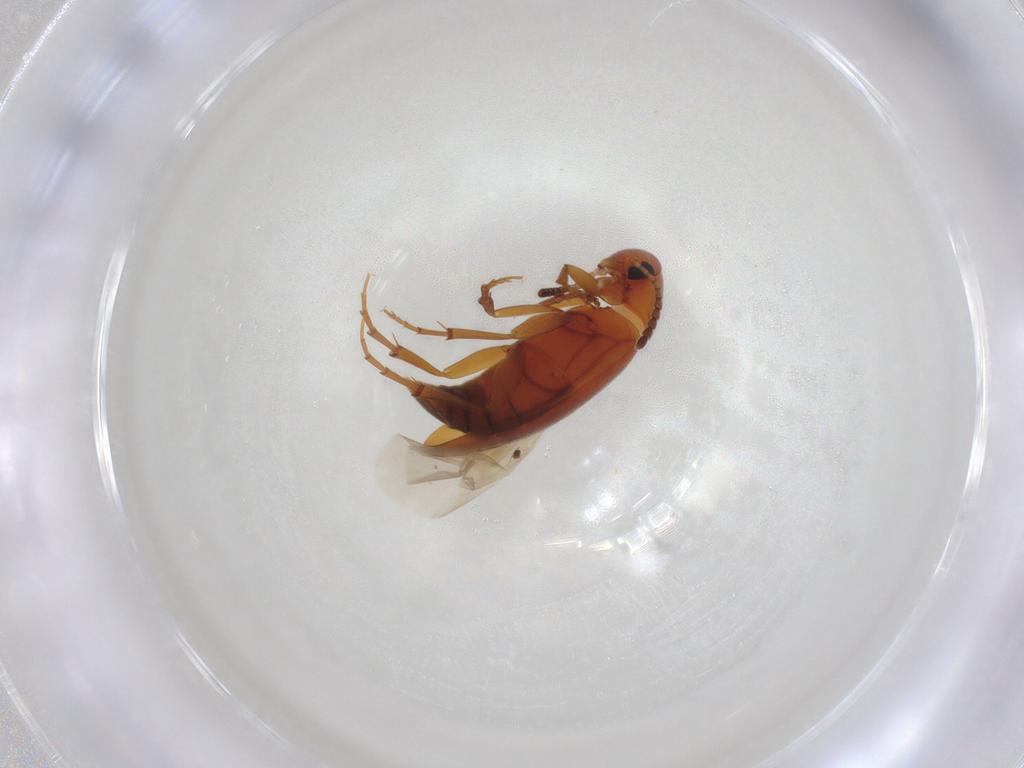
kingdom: Animalia
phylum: Arthropoda
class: Insecta
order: Coleoptera
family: Scraptiidae
